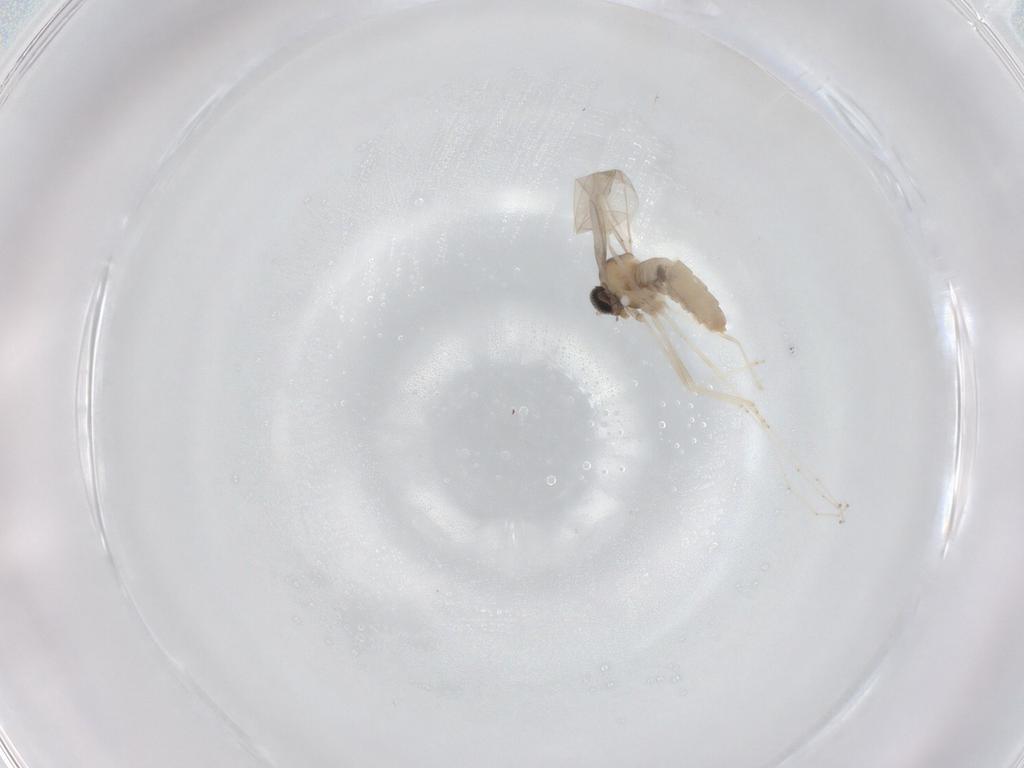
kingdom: Animalia
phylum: Arthropoda
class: Insecta
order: Diptera
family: Cecidomyiidae
